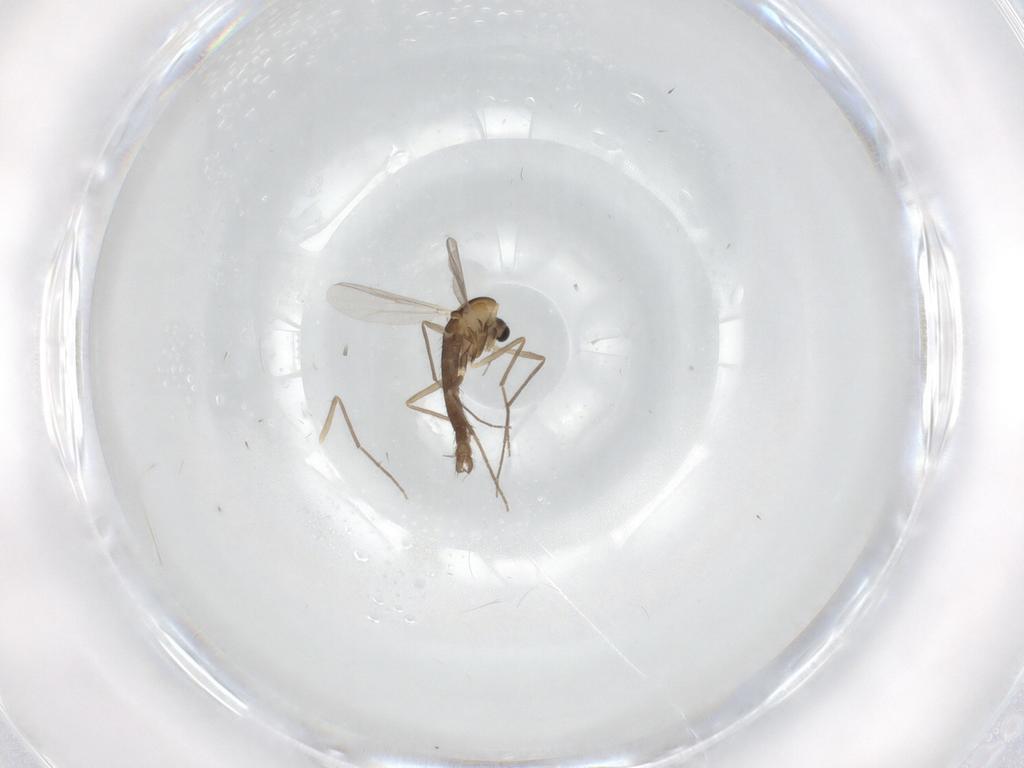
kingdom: Animalia
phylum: Arthropoda
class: Insecta
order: Diptera
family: Chironomidae
